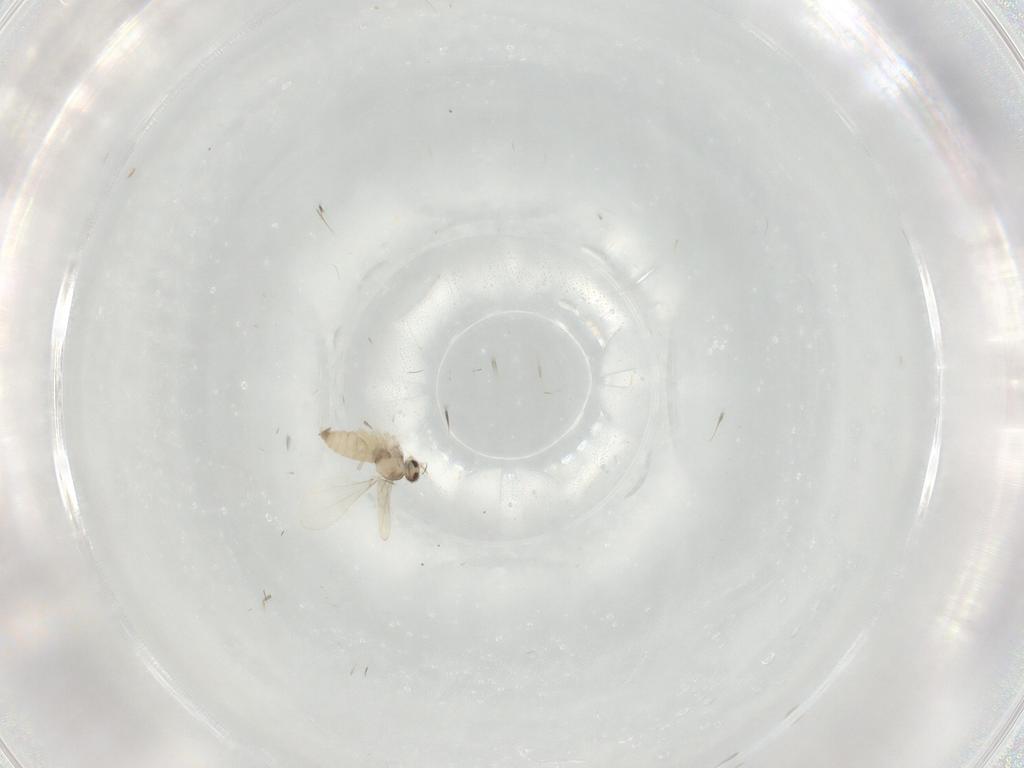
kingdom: Animalia
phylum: Arthropoda
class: Insecta
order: Diptera
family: Cecidomyiidae
